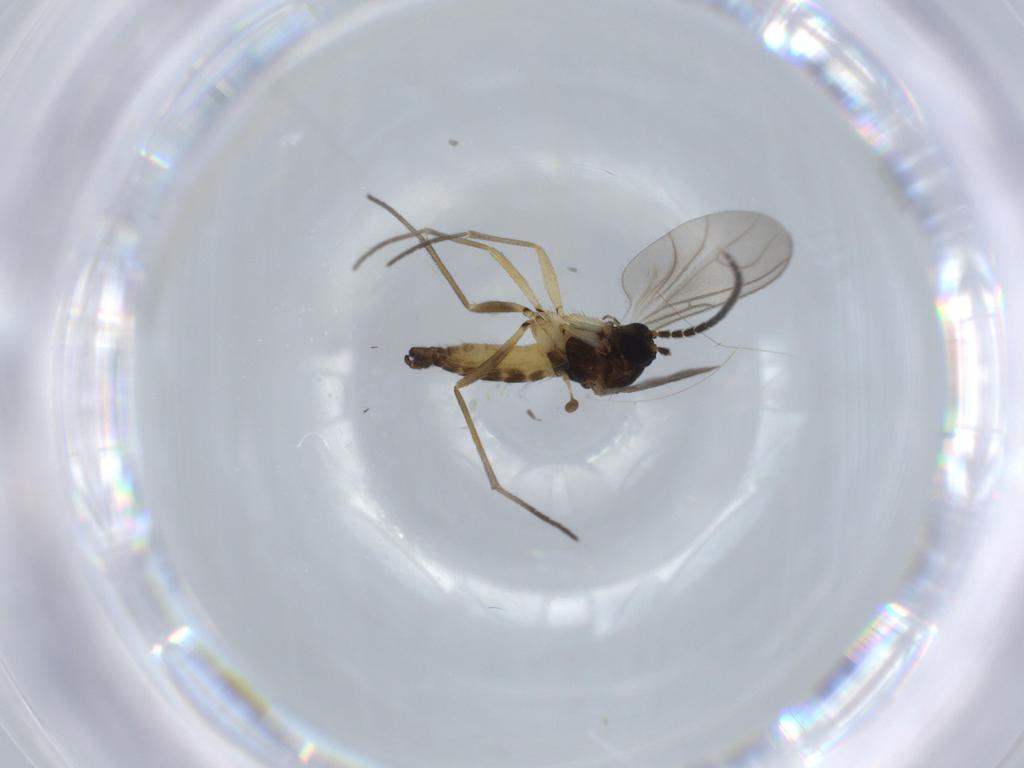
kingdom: Animalia
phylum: Arthropoda
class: Insecta
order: Diptera
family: Sciaridae
